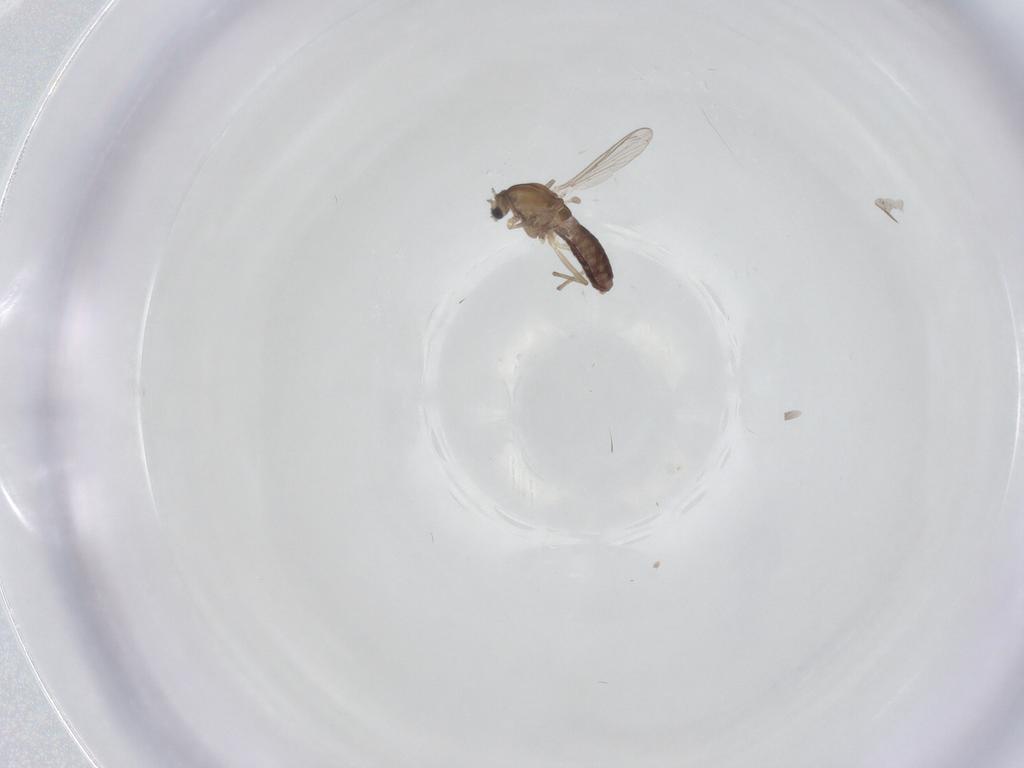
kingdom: Animalia
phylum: Arthropoda
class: Insecta
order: Diptera
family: Chironomidae
